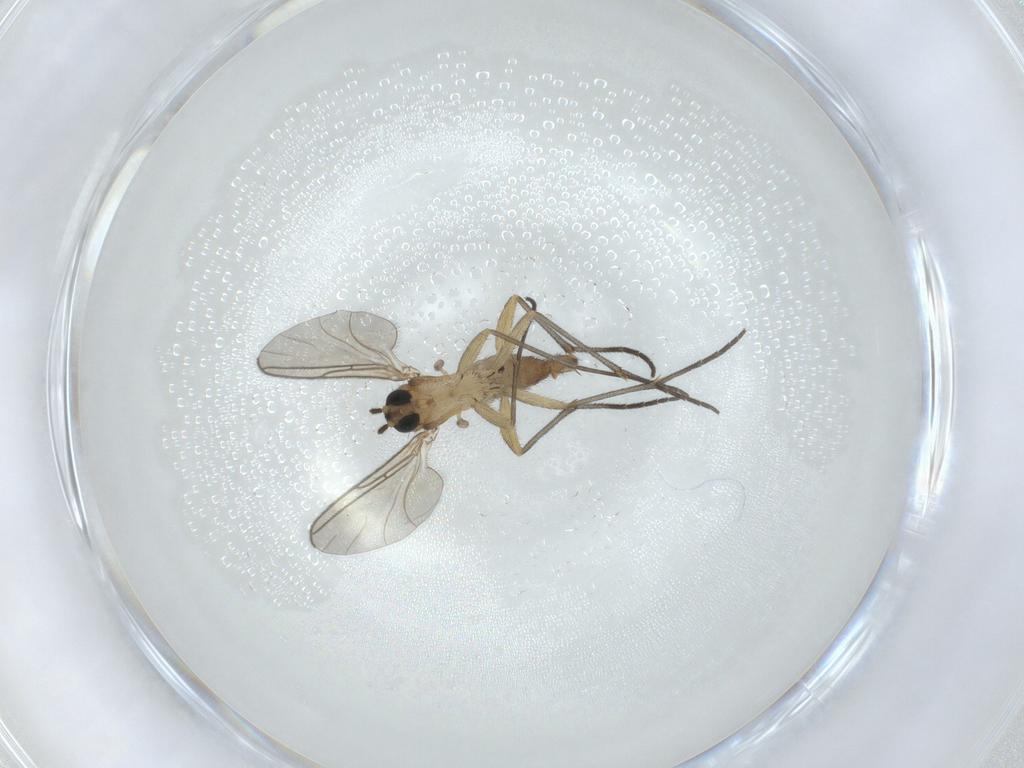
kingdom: Animalia
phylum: Arthropoda
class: Insecta
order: Diptera
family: Sciaridae
